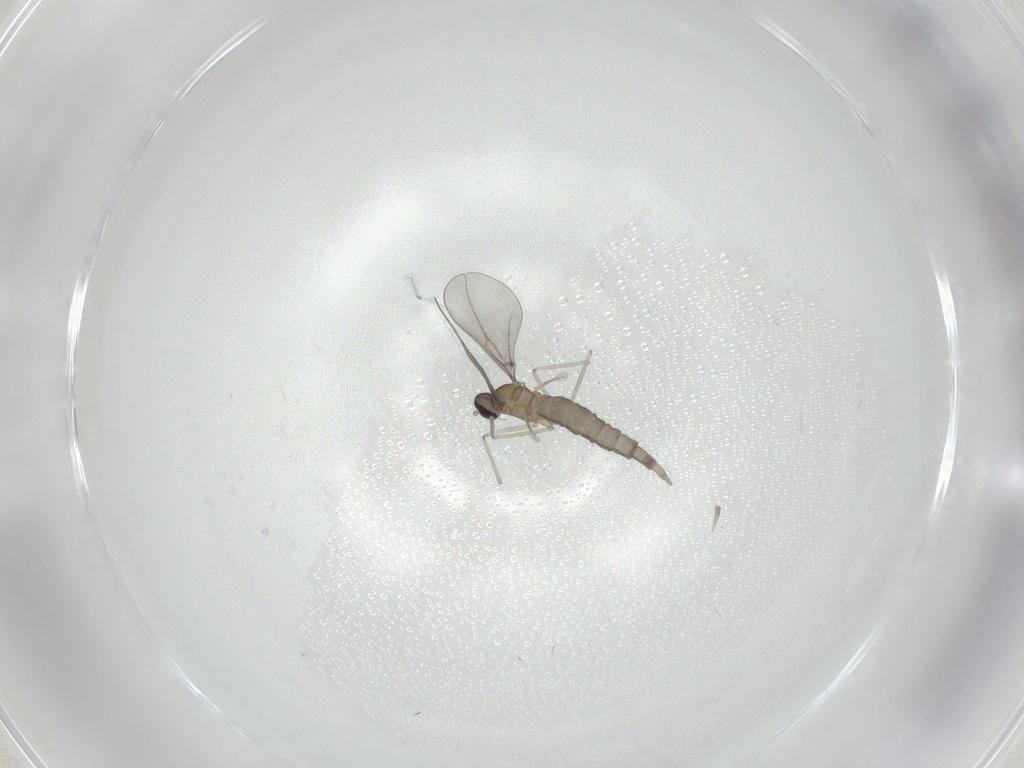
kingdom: Animalia
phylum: Arthropoda
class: Insecta
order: Diptera
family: Cecidomyiidae
